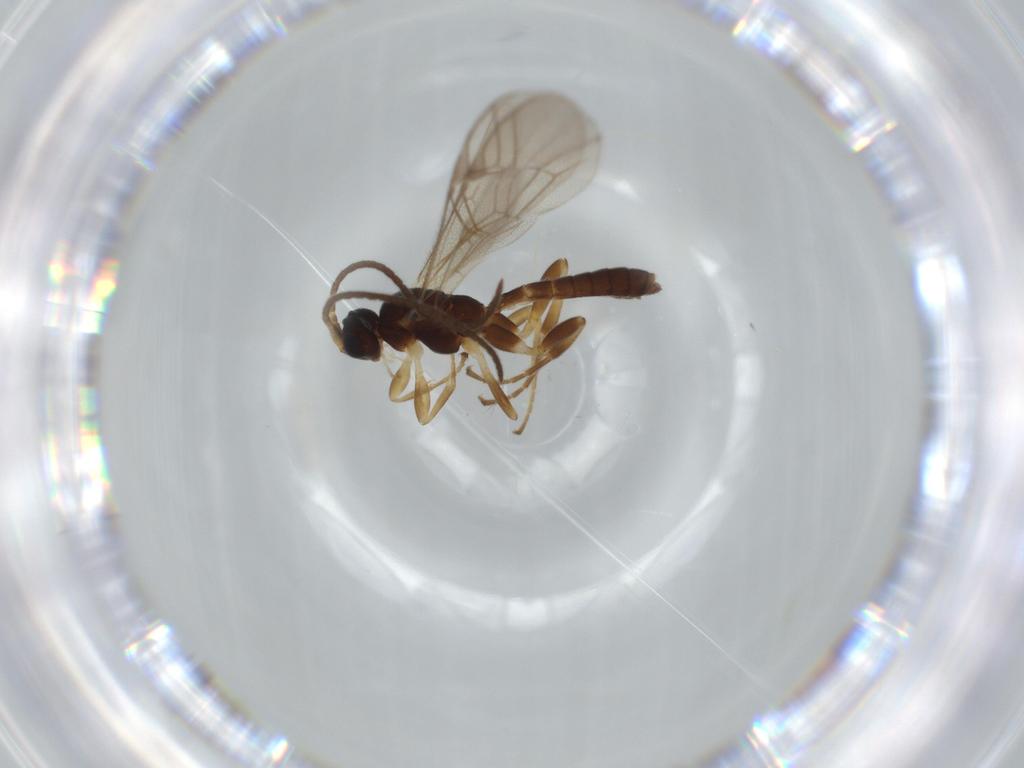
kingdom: Animalia
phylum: Arthropoda
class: Insecta
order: Hymenoptera
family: Ichneumonidae
